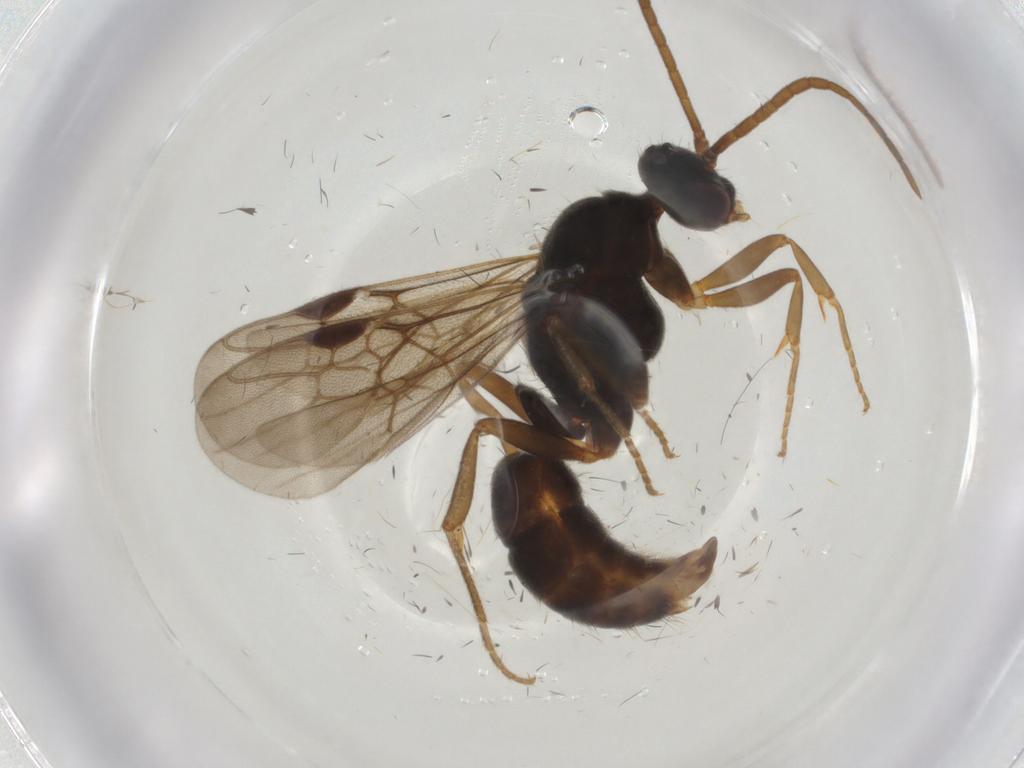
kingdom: Animalia
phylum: Arthropoda
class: Insecta
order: Hymenoptera
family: Formicidae
